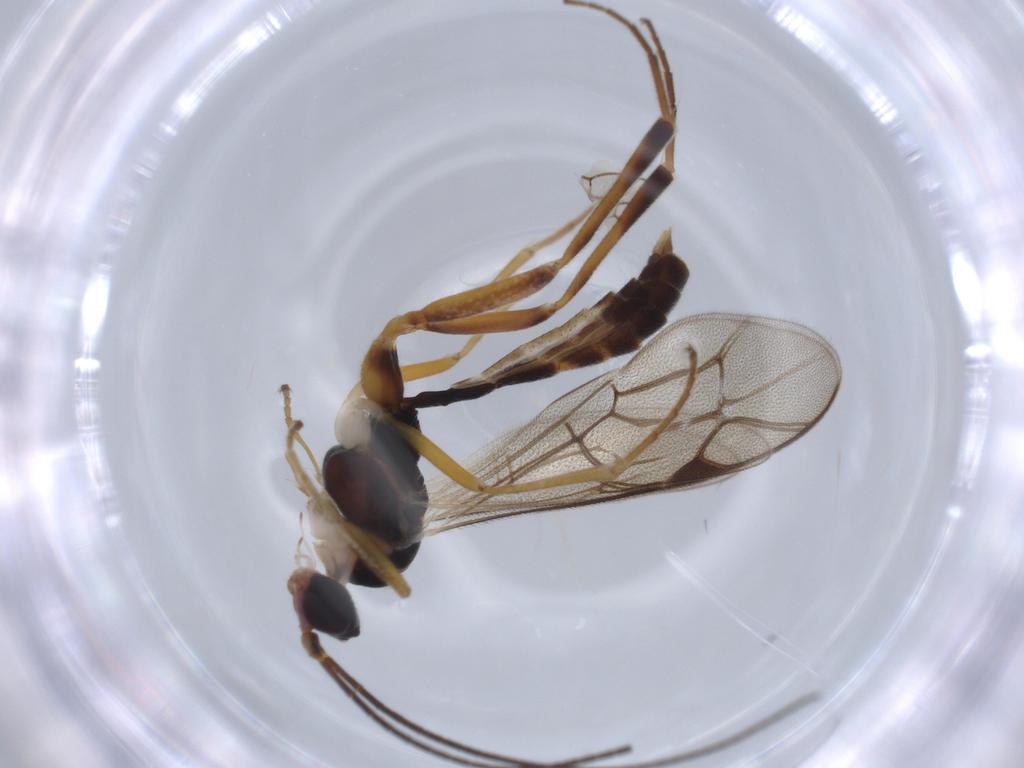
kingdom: Animalia
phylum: Arthropoda
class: Insecta
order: Hymenoptera
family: Ichneumonidae
